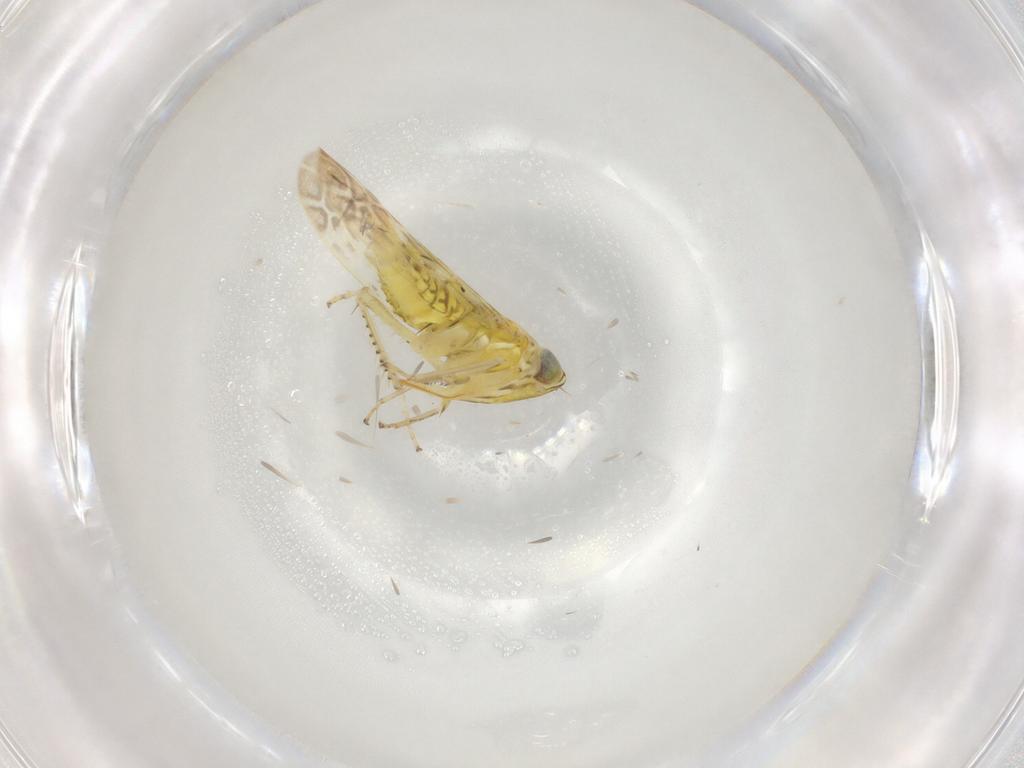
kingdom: Animalia
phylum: Arthropoda
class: Insecta
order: Hemiptera
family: Cicadellidae
